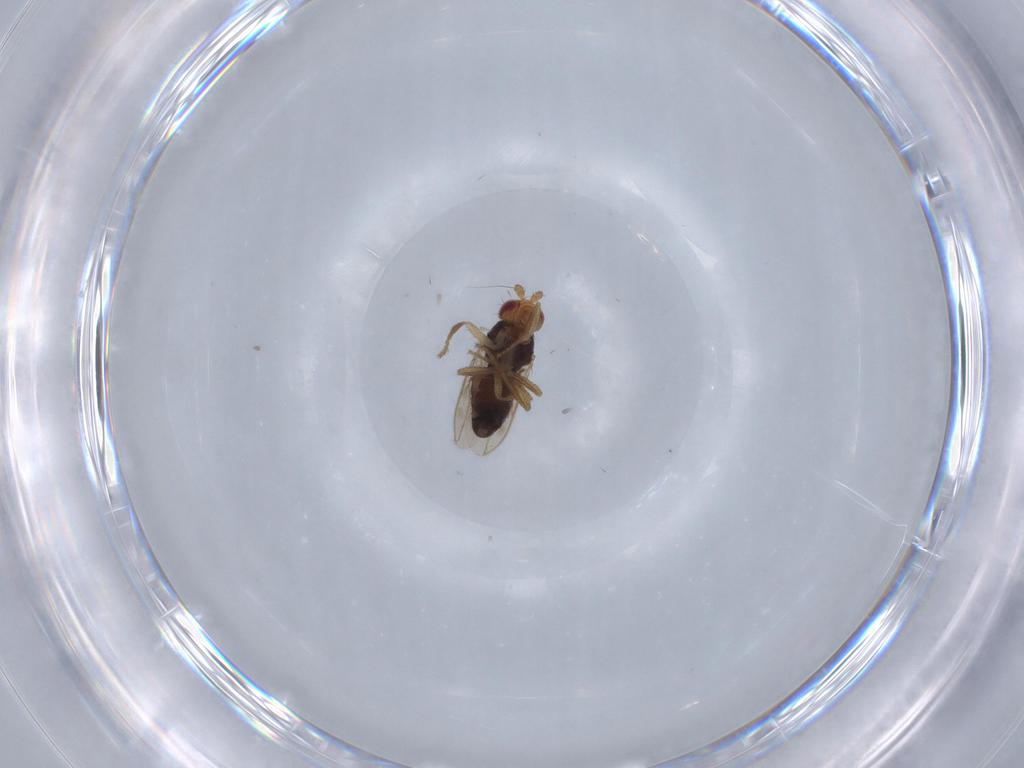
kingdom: Animalia
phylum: Arthropoda
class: Insecta
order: Diptera
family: Sphaeroceridae
